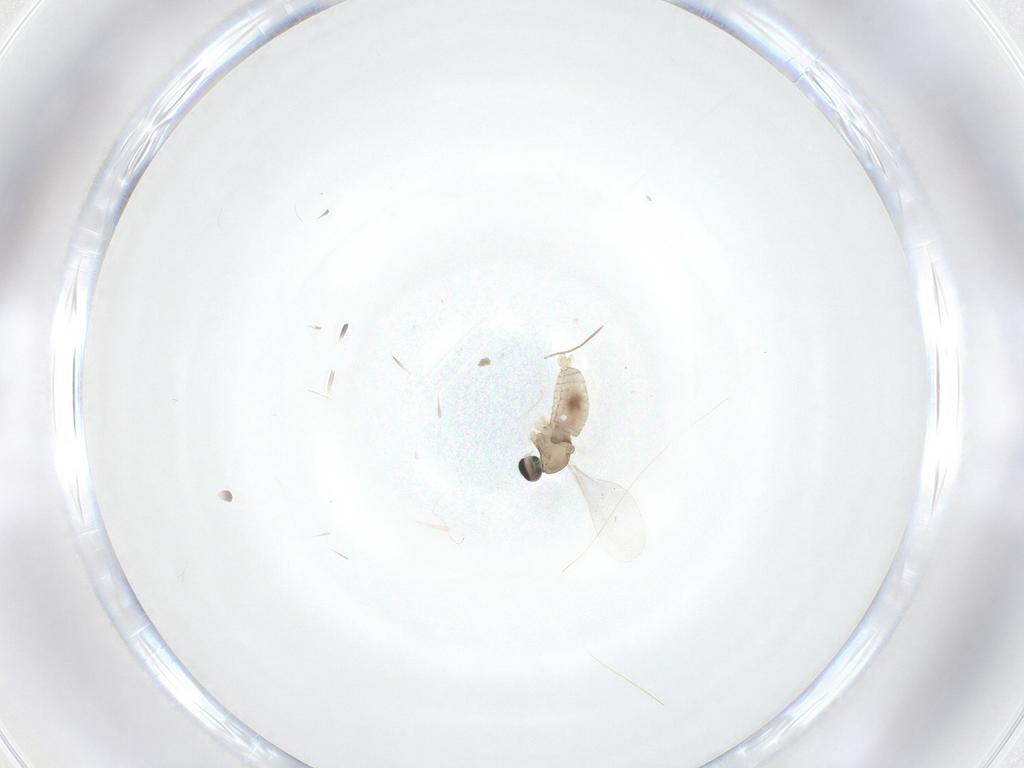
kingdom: Animalia
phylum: Arthropoda
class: Insecta
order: Diptera
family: Cecidomyiidae
